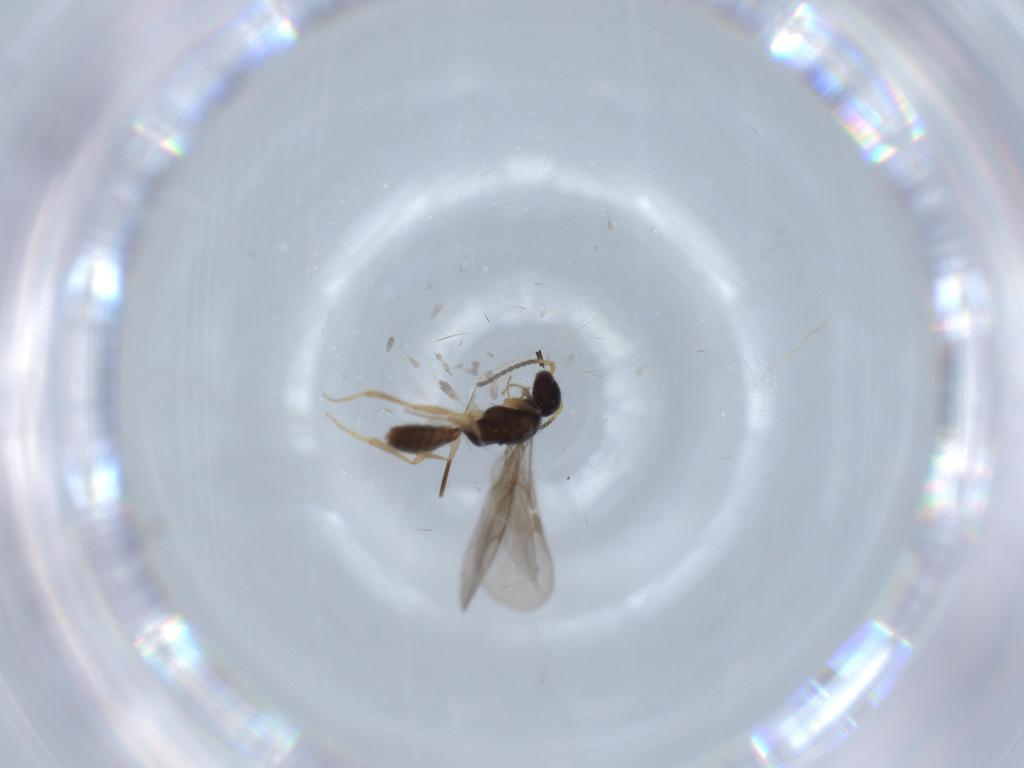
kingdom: Animalia
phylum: Arthropoda
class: Insecta
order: Hymenoptera
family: Bethylidae
